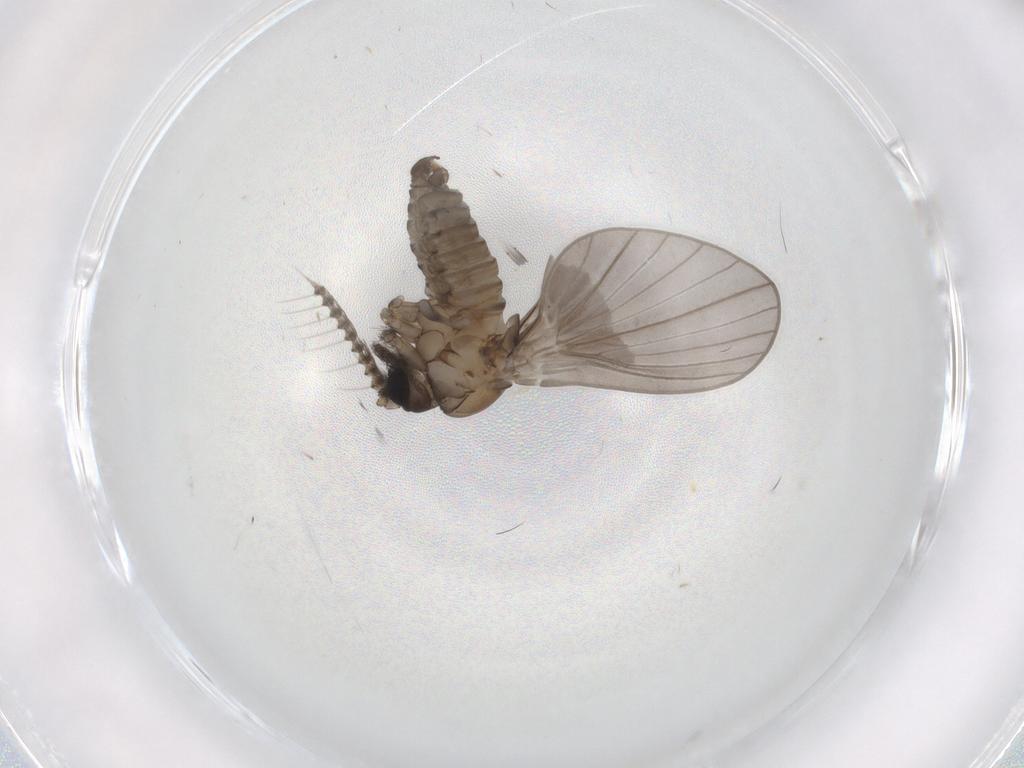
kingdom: Animalia
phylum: Arthropoda
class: Insecta
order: Diptera
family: Psychodidae
